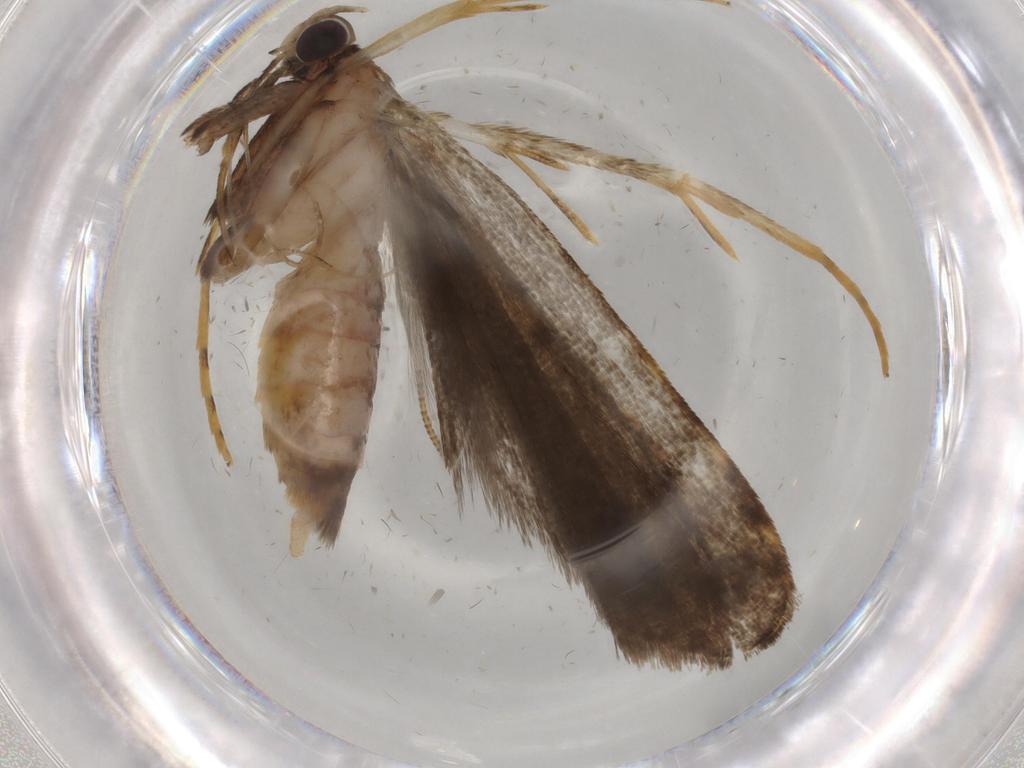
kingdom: Animalia
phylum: Arthropoda
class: Insecta
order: Lepidoptera
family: Cosmopterigidae
